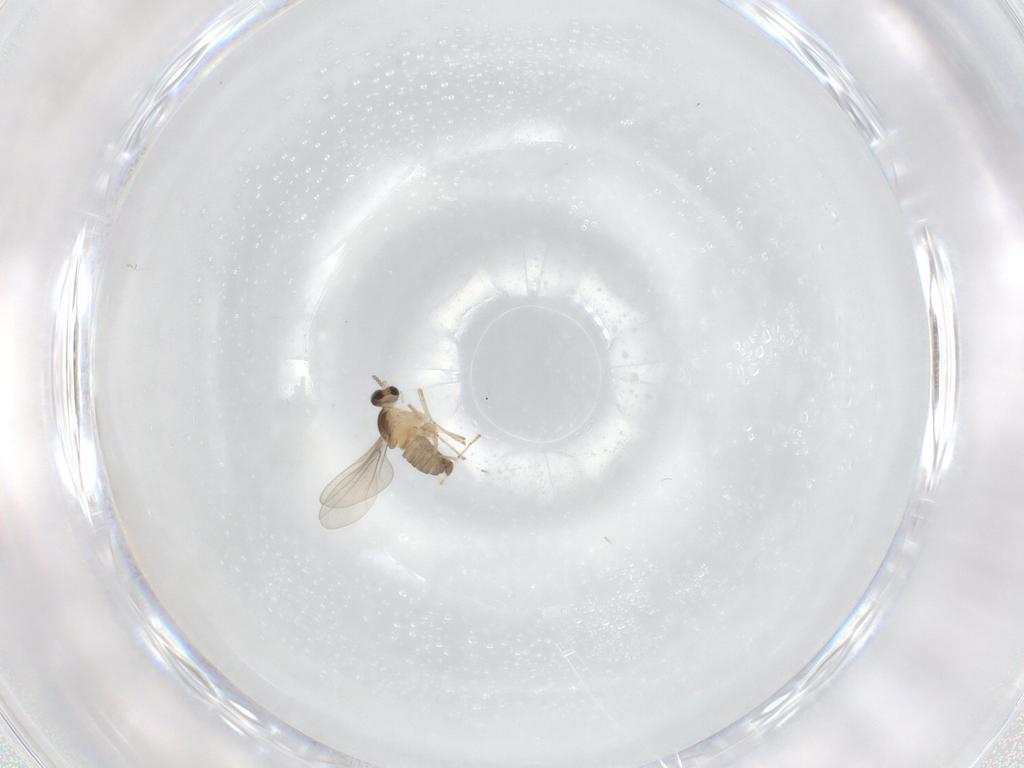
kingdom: Animalia
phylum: Arthropoda
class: Insecta
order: Diptera
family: Cecidomyiidae
